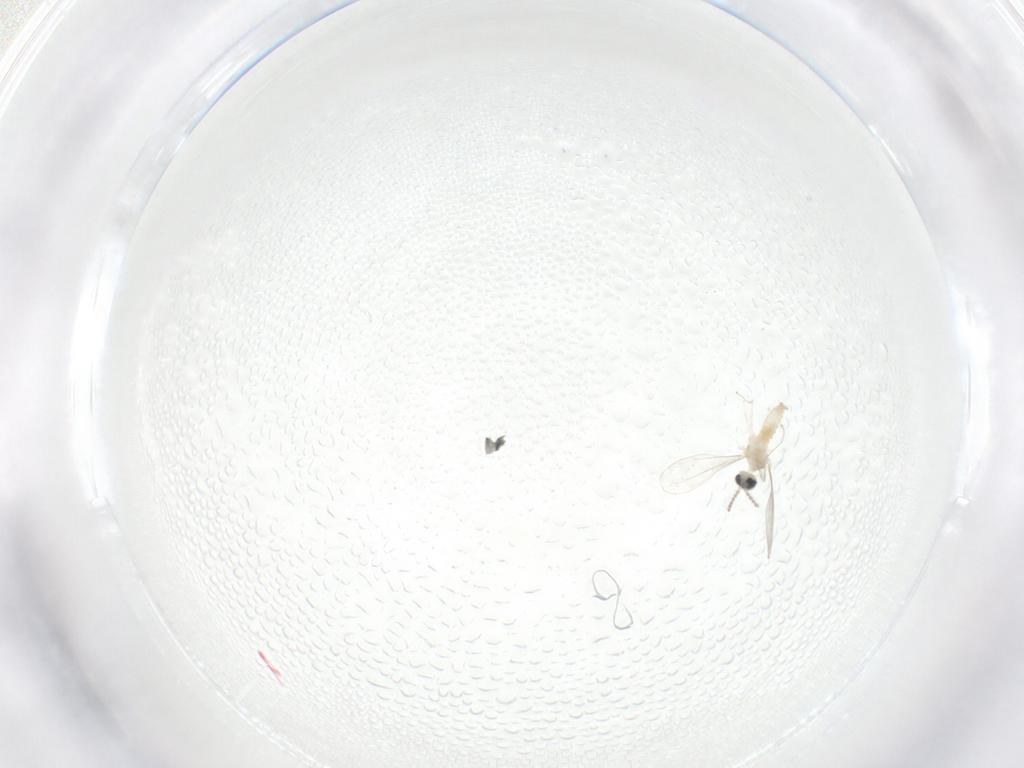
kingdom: Animalia
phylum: Arthropoda
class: Insecta
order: Diptera
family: Cecidomyiidae
